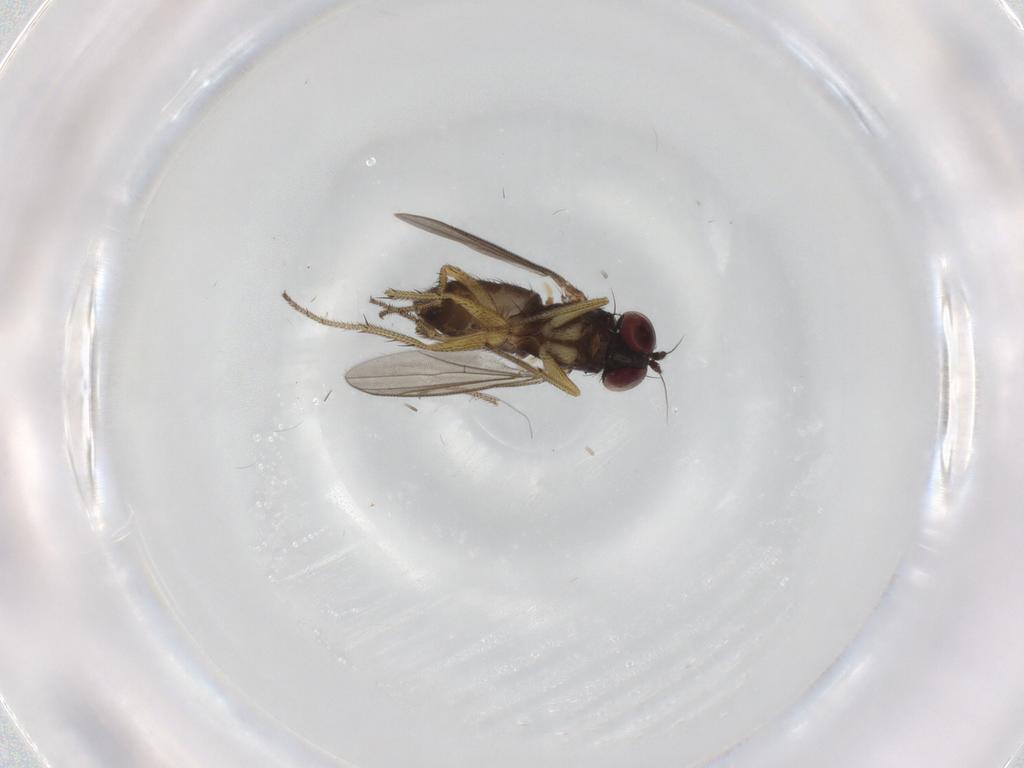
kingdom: Animalia
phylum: Arthropoda
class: Insecta
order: Diptera
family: Dolichopodidae
